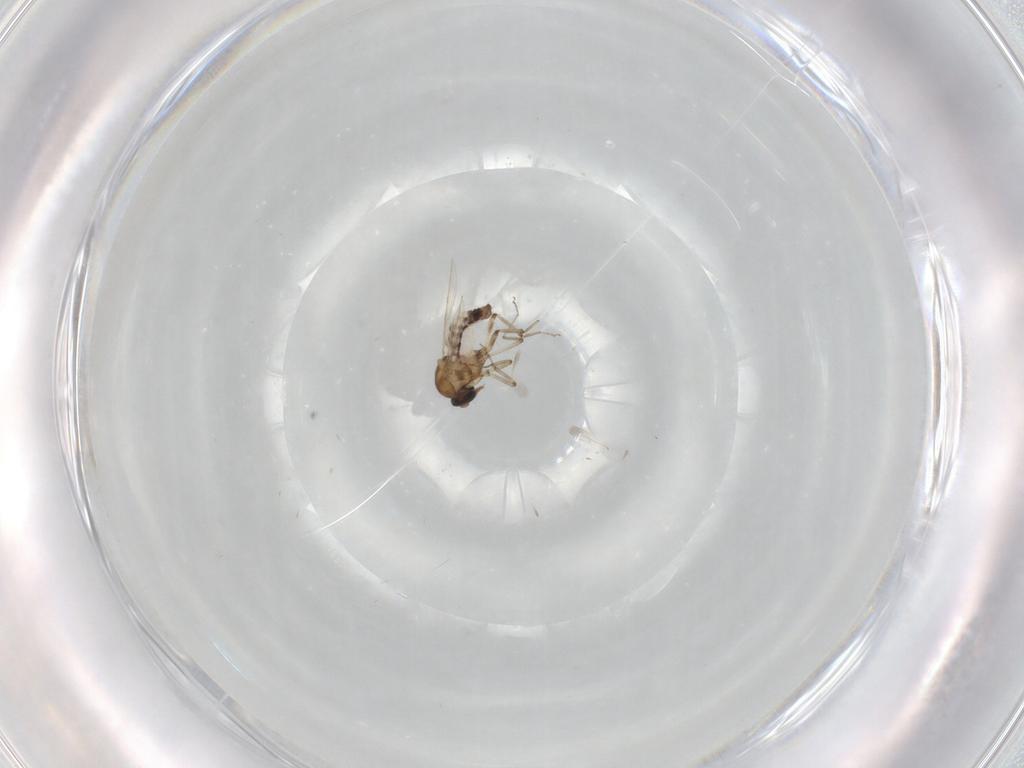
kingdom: Animalia
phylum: Arthropoda
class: Insecta
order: Diptera
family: Ceratopogonidae
